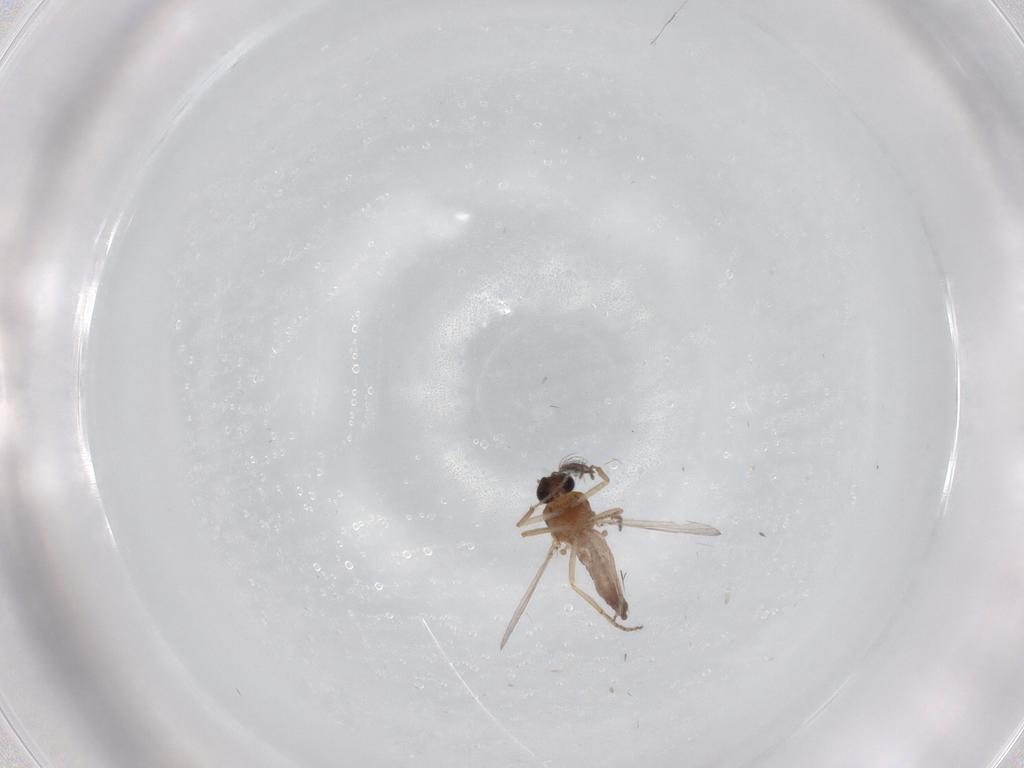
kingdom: Animalia
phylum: Arthropoda
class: Insecta
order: Diptera
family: Ceratopogonidae
